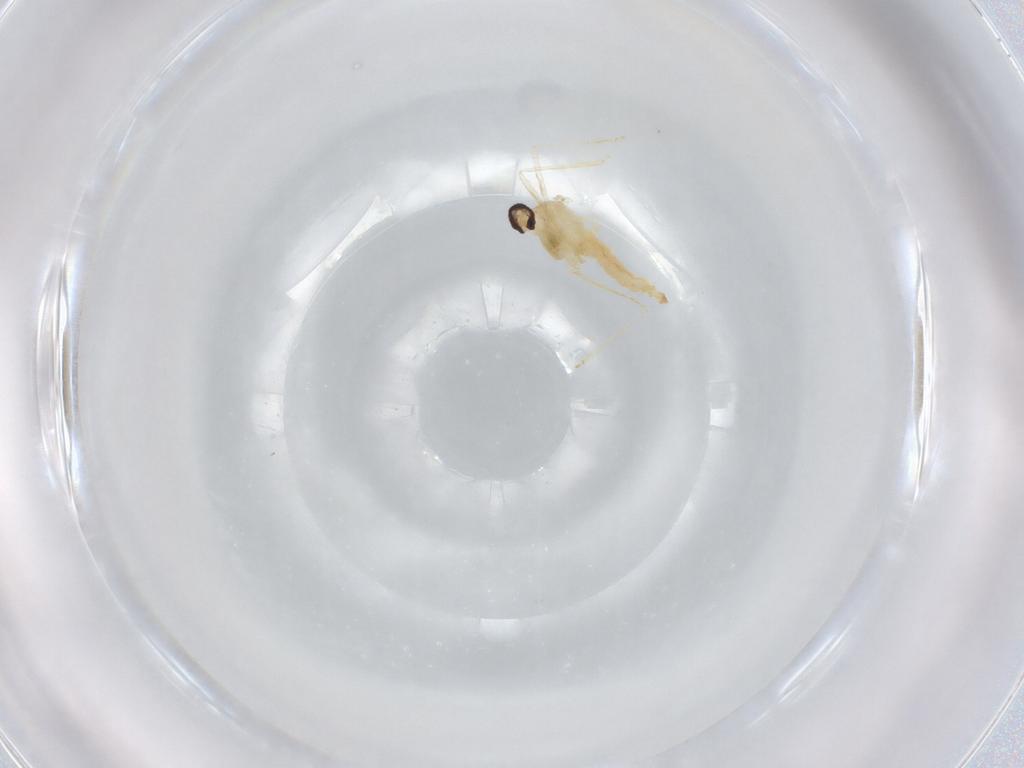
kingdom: Animalia
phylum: Arthropoda
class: Insecta
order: Diptera
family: Cecidomyiidae
